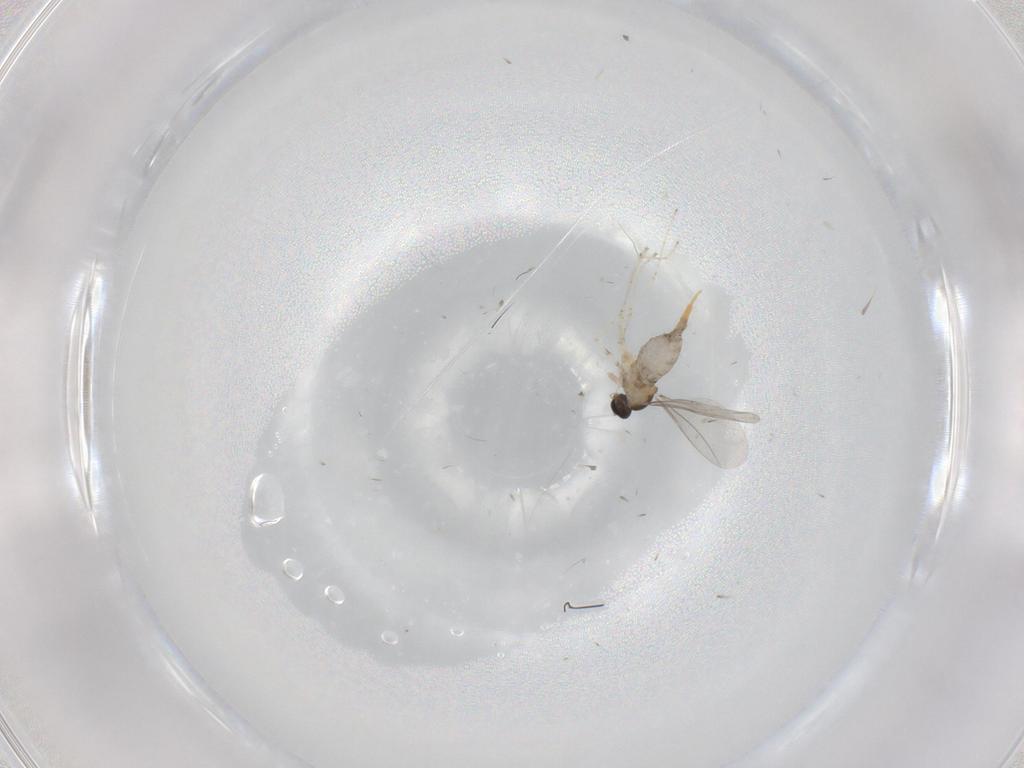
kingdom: Animalia
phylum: Arthropoda
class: Insecta
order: Diptera
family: Cecidomyiidae
